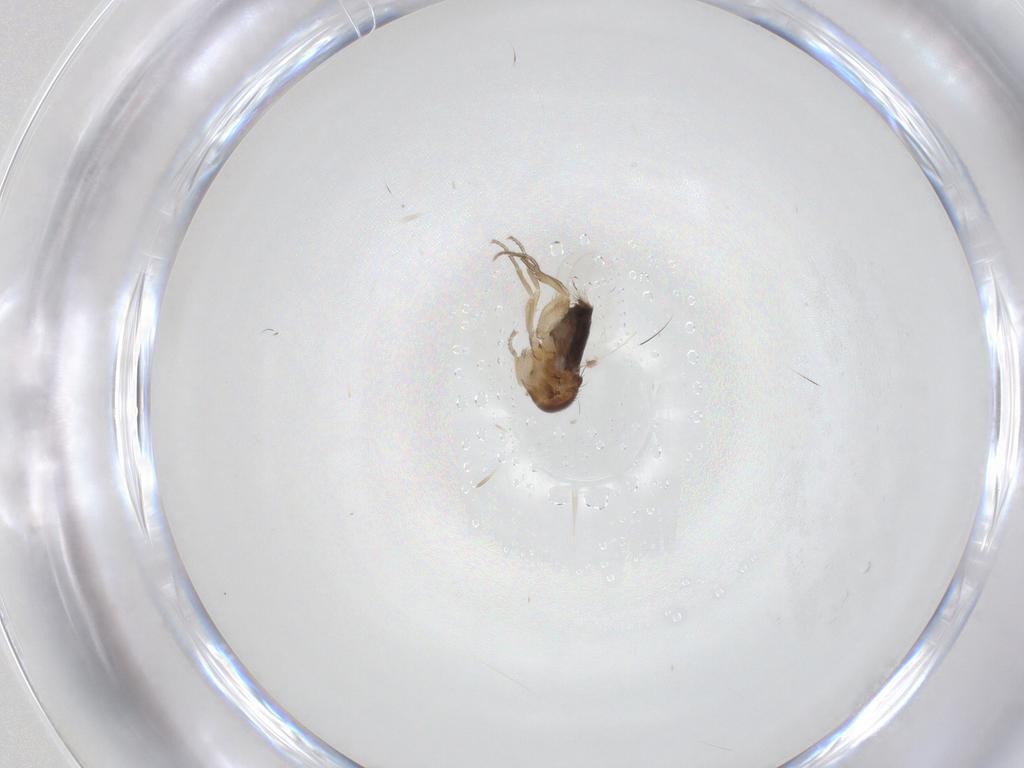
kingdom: Animalia
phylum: Arthropoda
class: Insecta
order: Diptera
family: Phoridae
